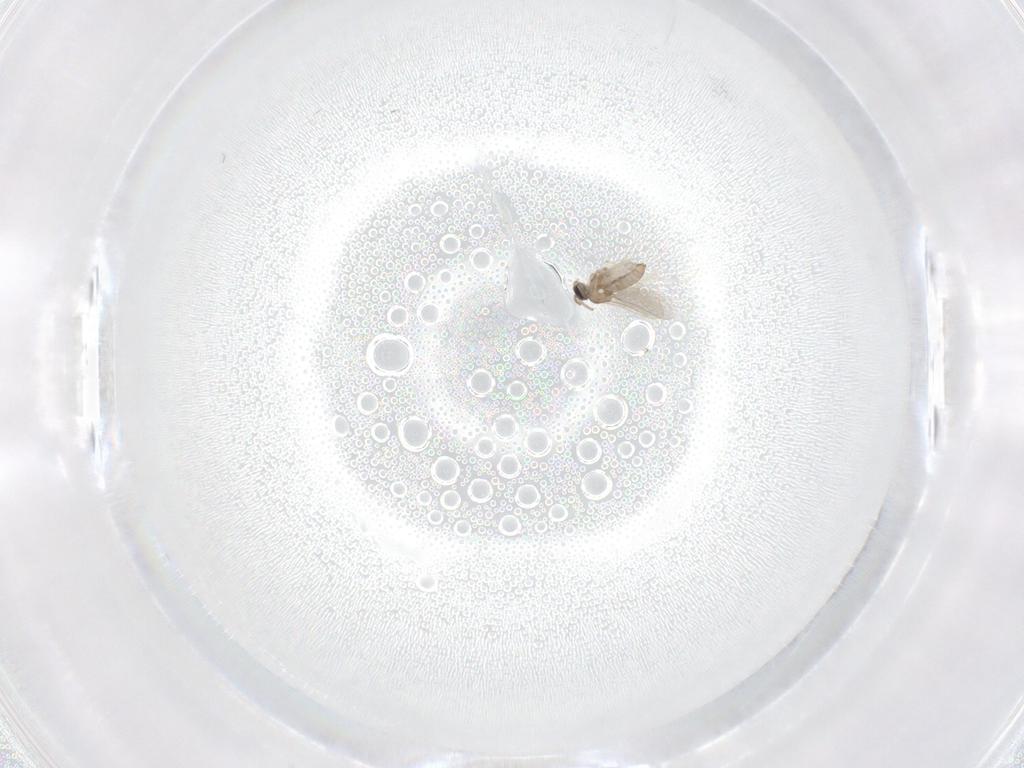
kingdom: Animalia
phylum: Arthropoda
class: Insecta
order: Diptera
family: Cecidomyiidae
